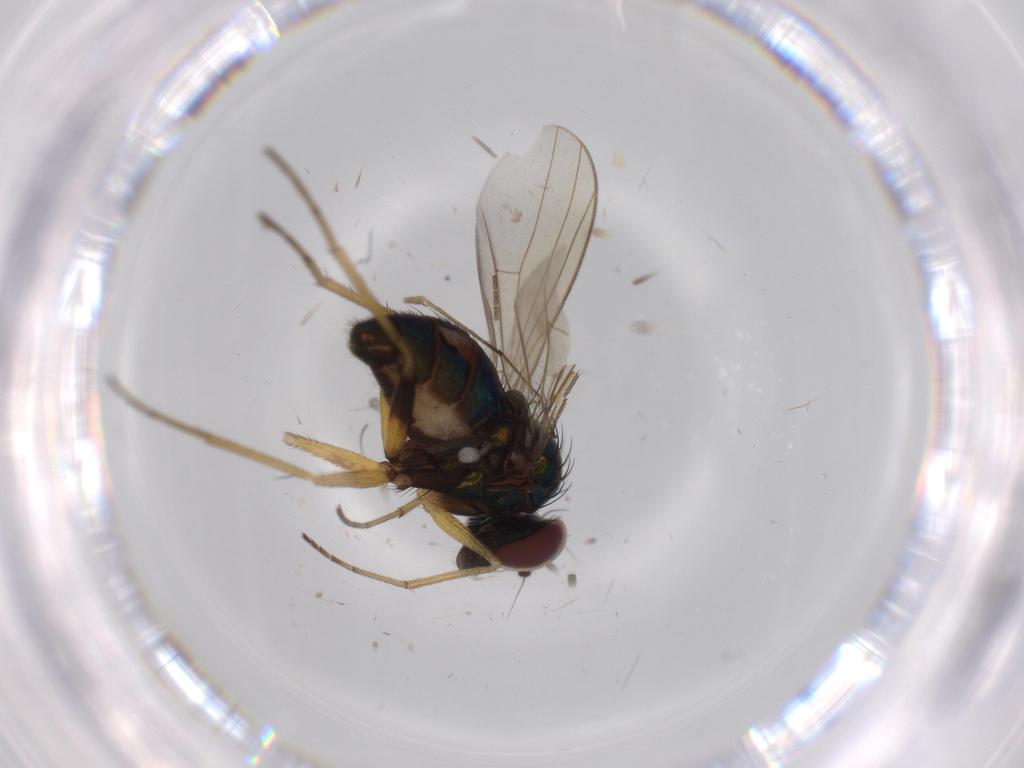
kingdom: Animalia
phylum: Arthropoda
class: Insecta
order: Diptera
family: Dolichopodidae
